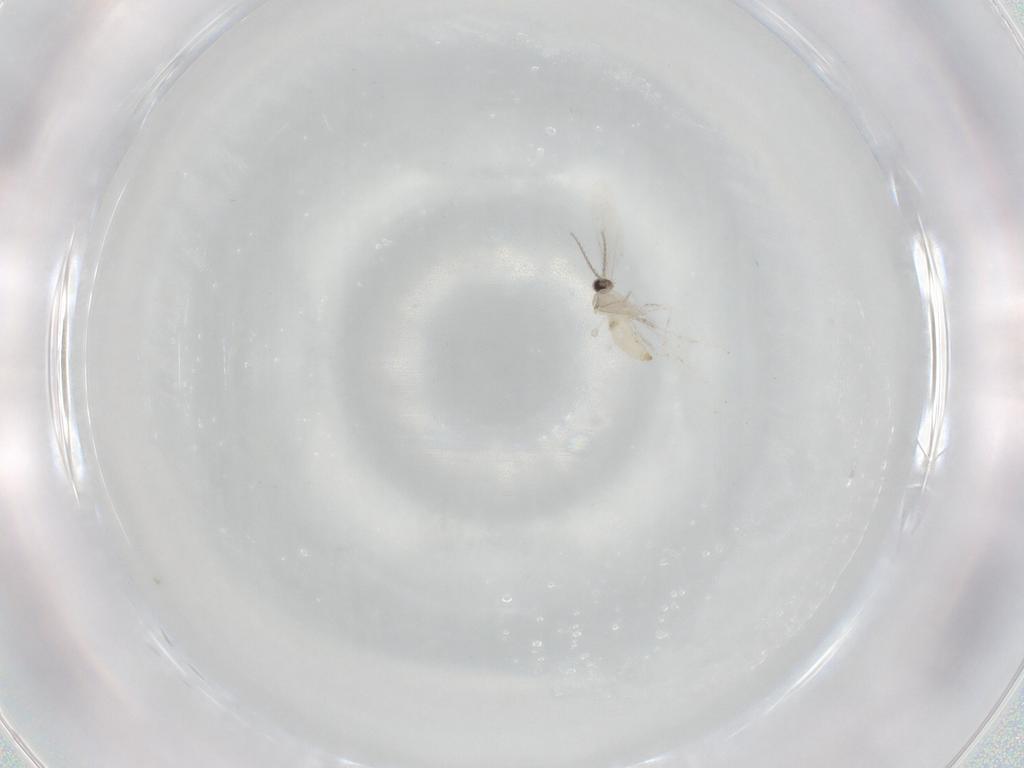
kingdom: Animalia
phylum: Arthropoda
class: Insecta
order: Diptera
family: Cecidomyiidae
